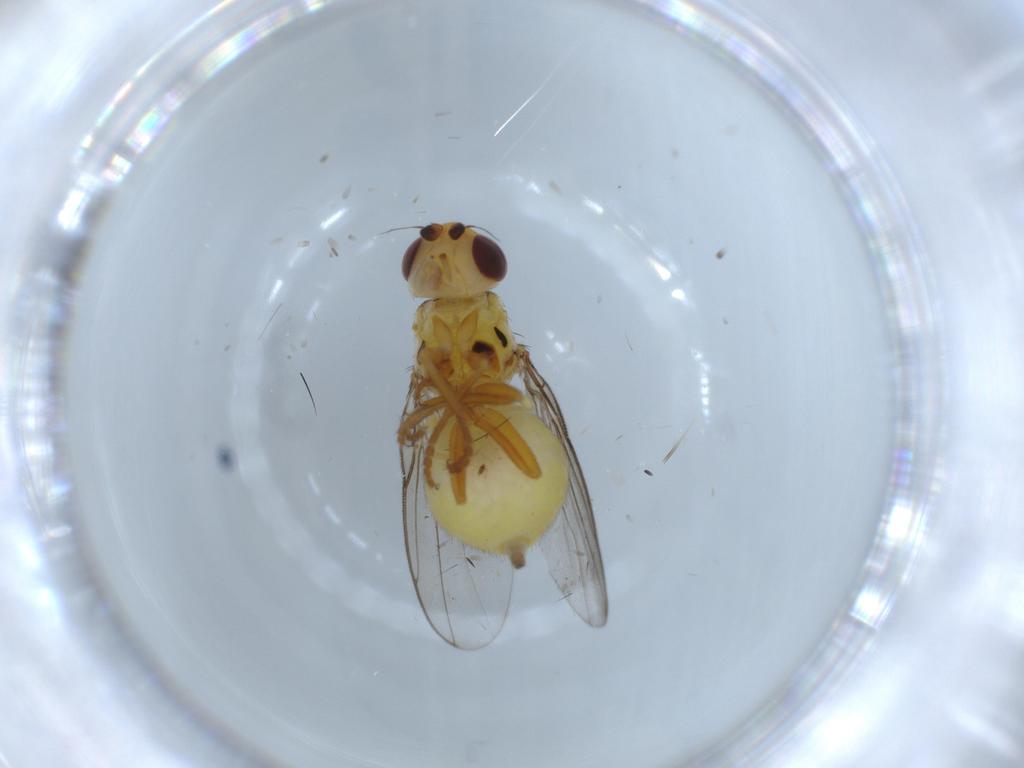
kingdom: Animalia
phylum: Arthropoda
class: Insecta
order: Diptera
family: Chloropidae
